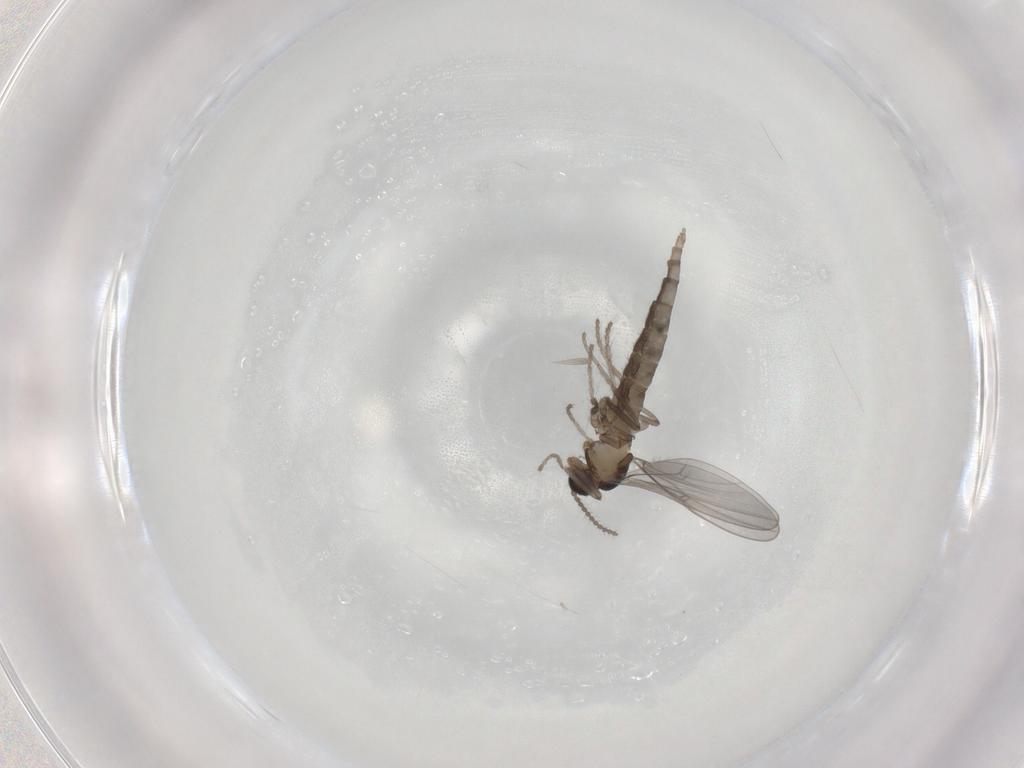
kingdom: Animalia
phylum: Arthropoda
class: Insecta
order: Diptera
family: Cecidomyiidae
